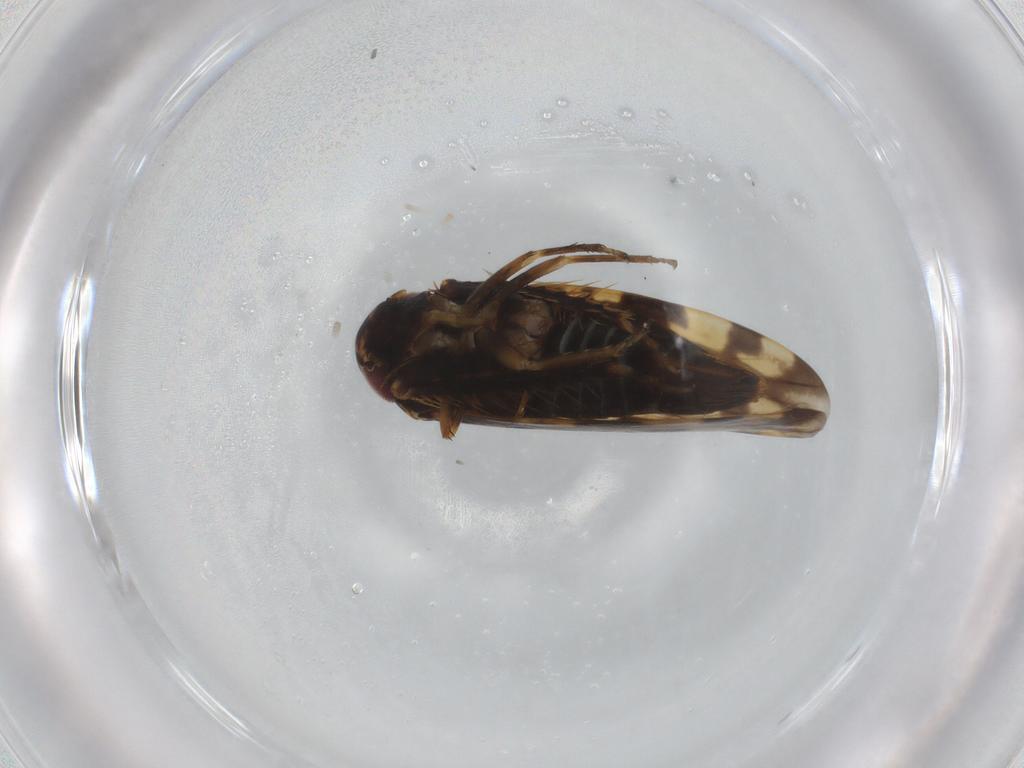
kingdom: Animalia
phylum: Arthropoda
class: Insecta
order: Hemiptera
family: Cicadellidae
